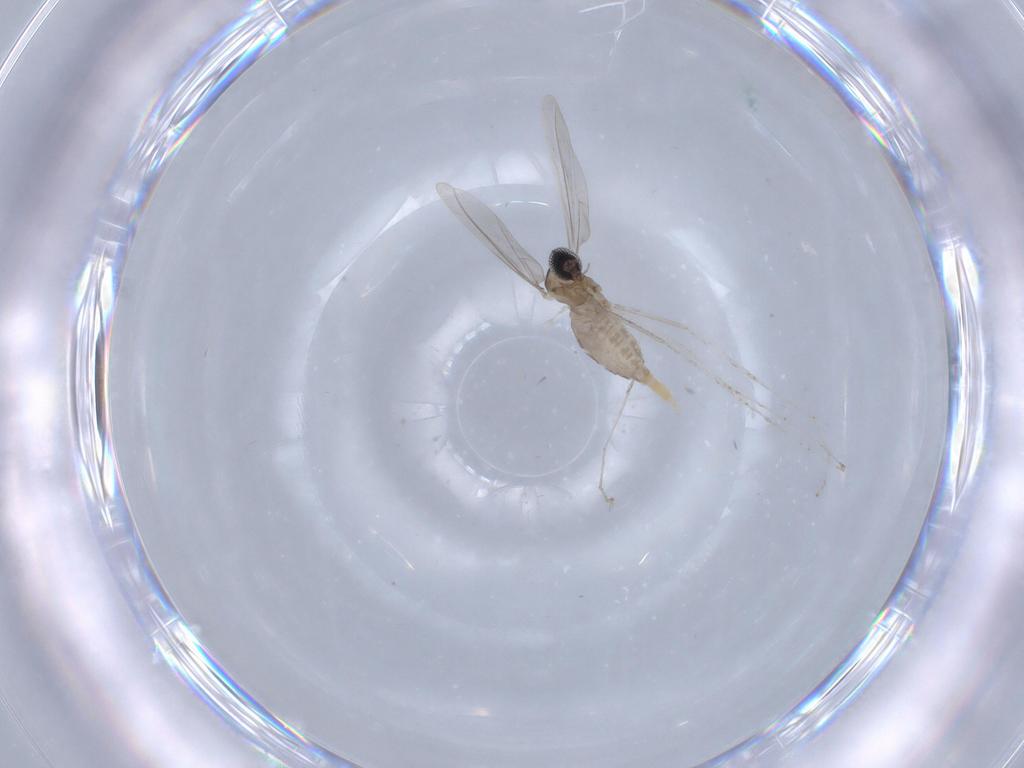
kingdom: Animalia
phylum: Arthropoda
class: Insecta
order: Diptera
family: Cecidomyiidae
